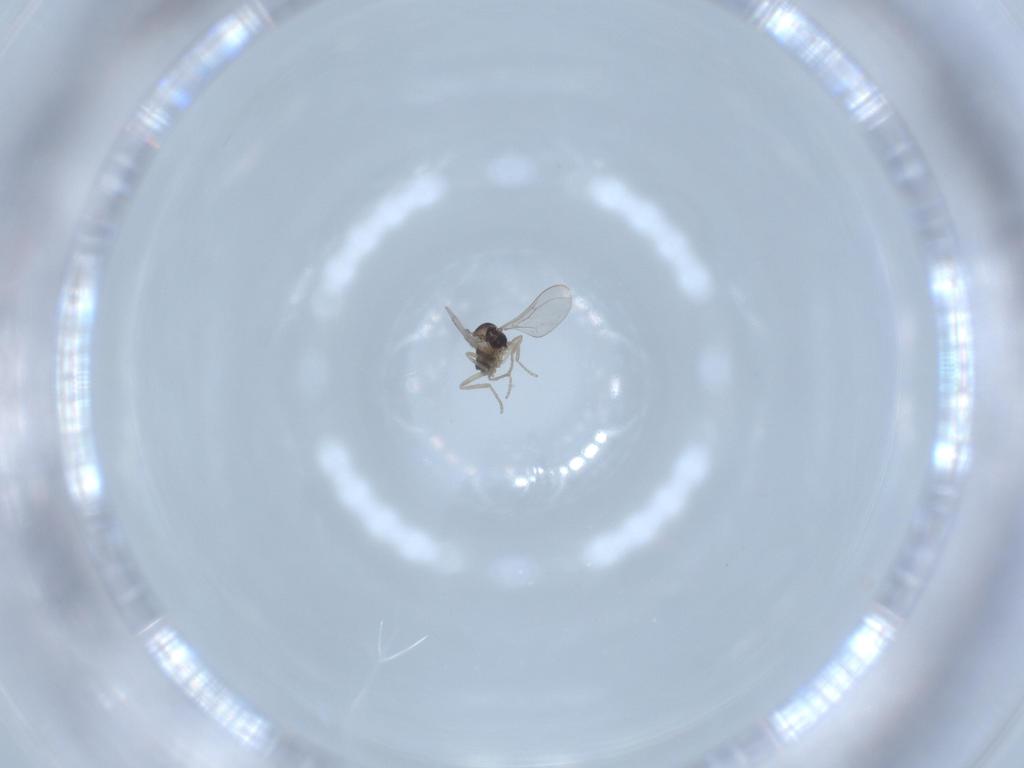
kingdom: Animalia
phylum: Arthropoda
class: Insecta
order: Diptera
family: Cecidomyiidae
